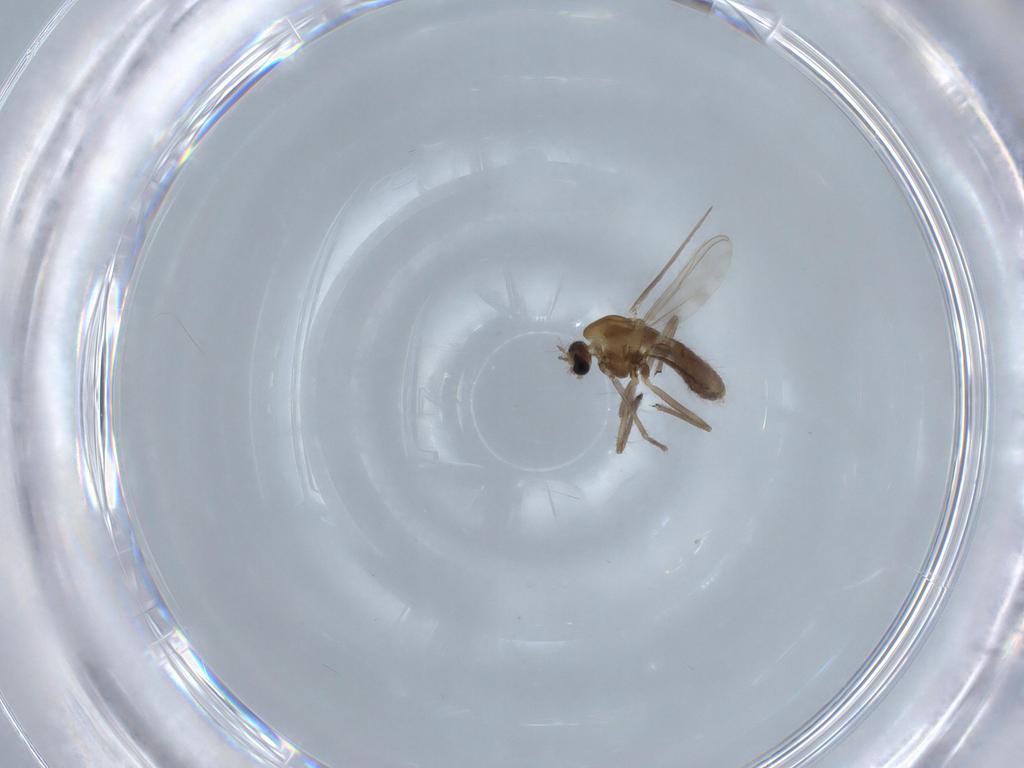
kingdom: Animalia
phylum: Arthropoda
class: Insecta
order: Diptera
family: Chironomidae
